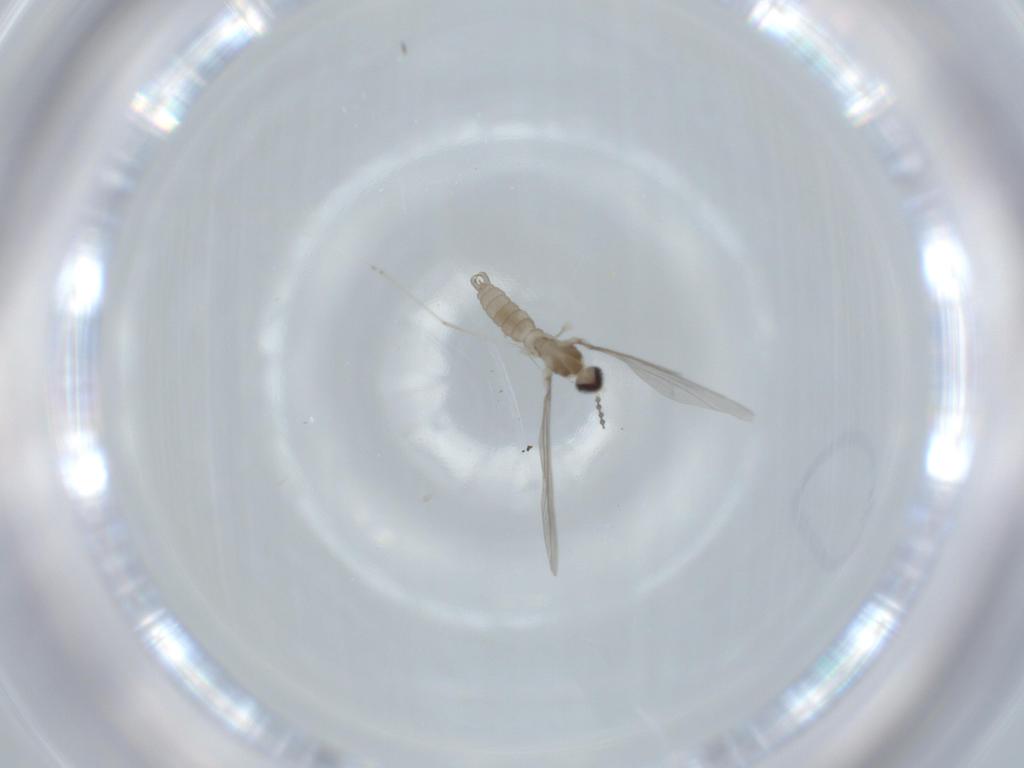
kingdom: Animalia
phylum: Arthropoda
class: Insecta
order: Diptera
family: Cecidomyiidae
